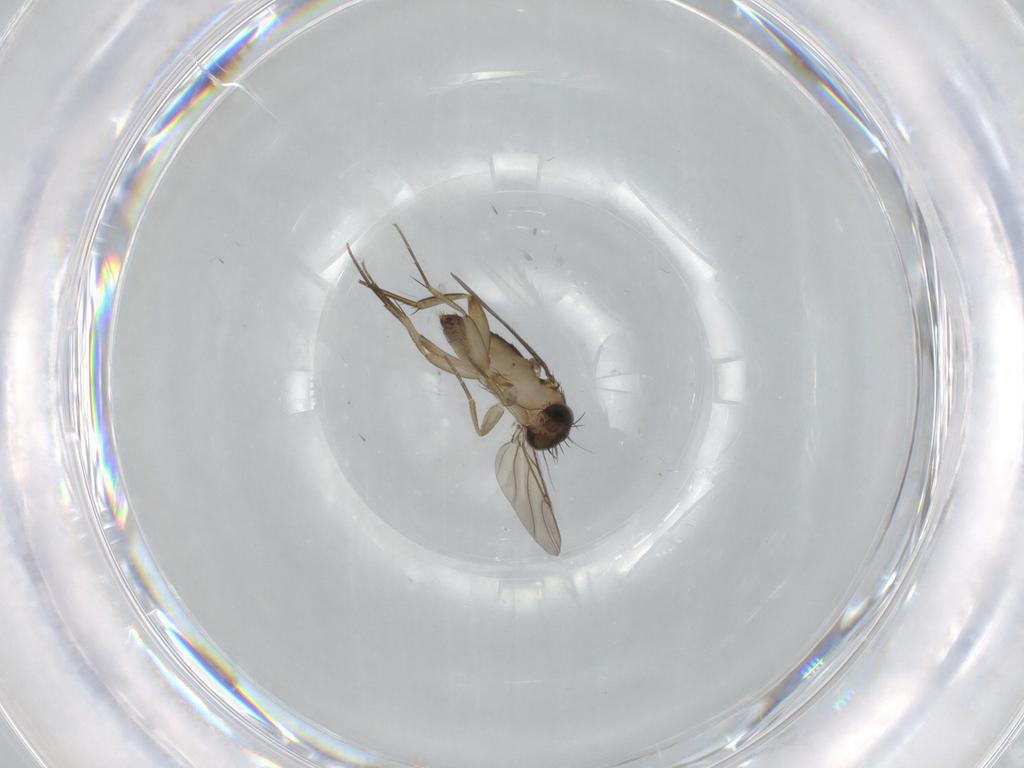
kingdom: Animalia
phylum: Arthropoda
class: Insecta
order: Diptera
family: Phoridae
